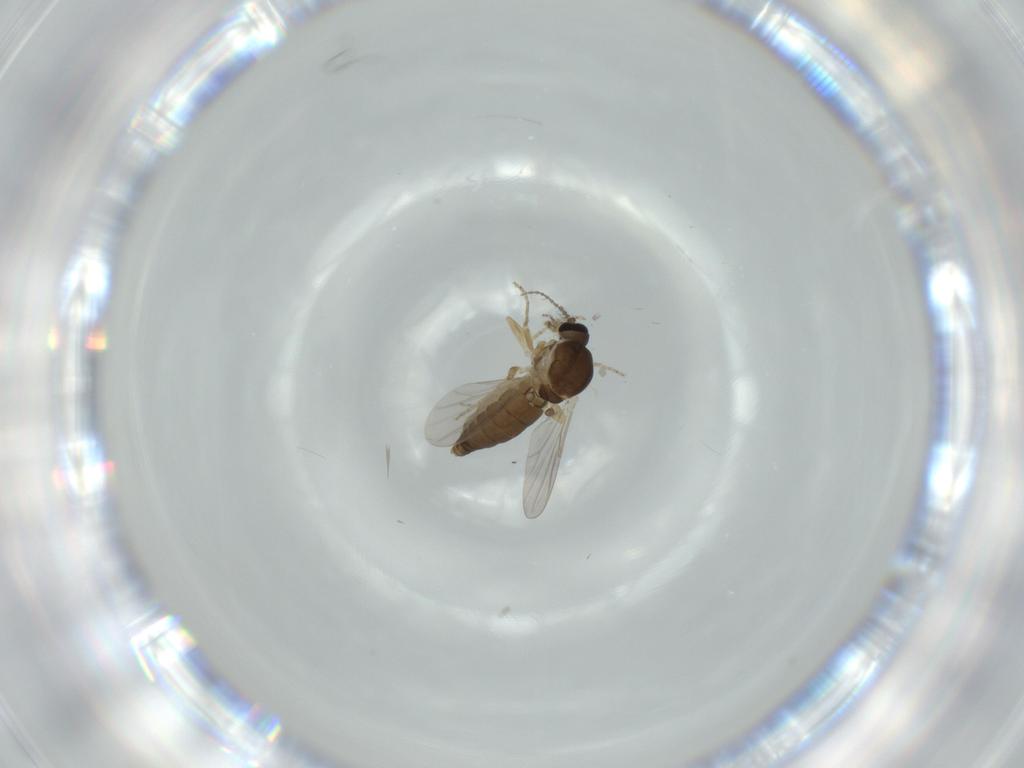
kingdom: Animalia
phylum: Arthropoda
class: Insecta
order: Diptera
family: Ceratopogonidae
